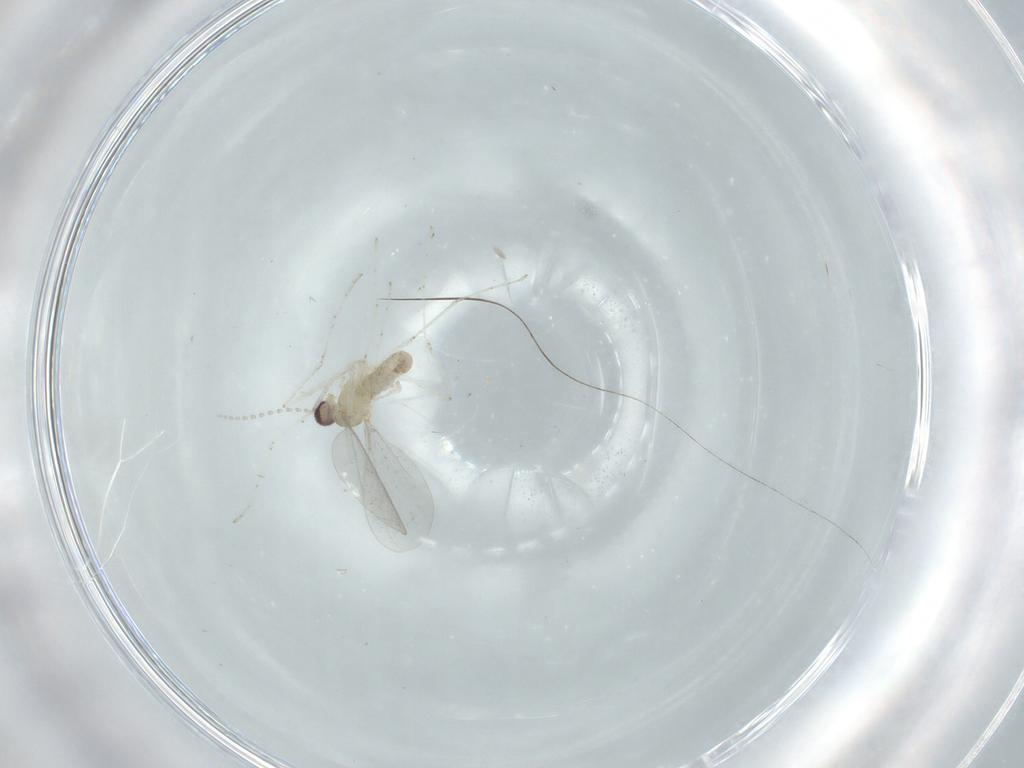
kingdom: Animalia
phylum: Arthropoda
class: Insecta
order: Diptera
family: Cecidomyiidae
